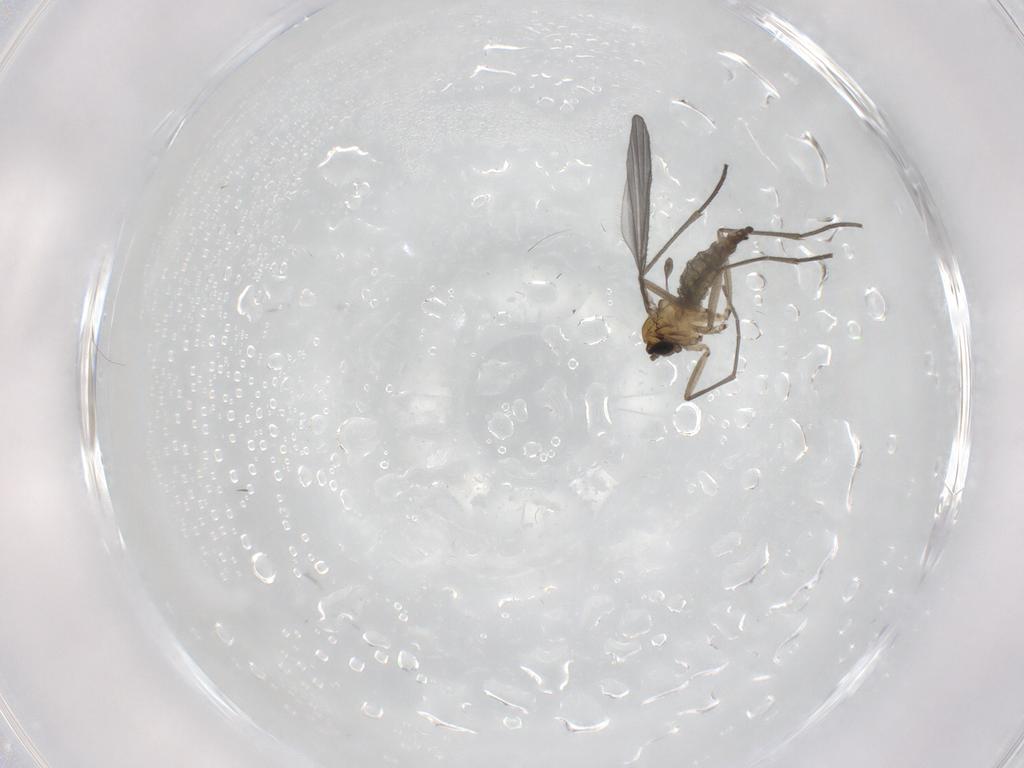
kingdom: Animalia
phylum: Arthropoda
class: Insecta
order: Diptera
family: Sciaridae
